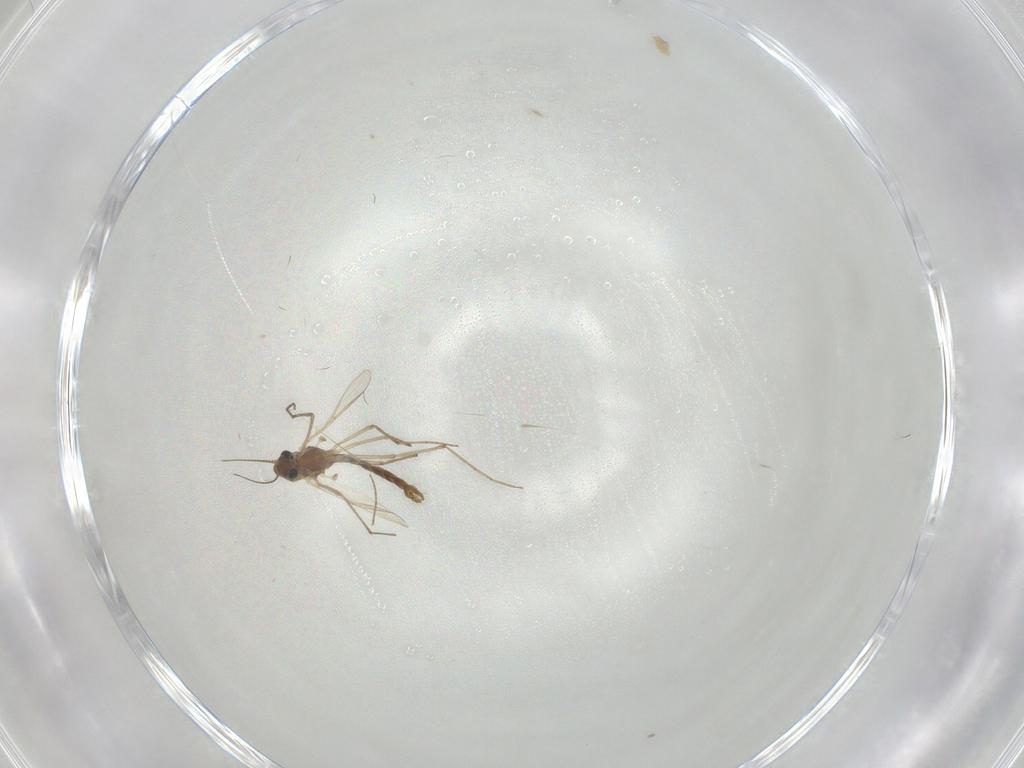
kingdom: Animalia
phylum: Arthropoda
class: Insecta
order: Diptera
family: Chironomidae
